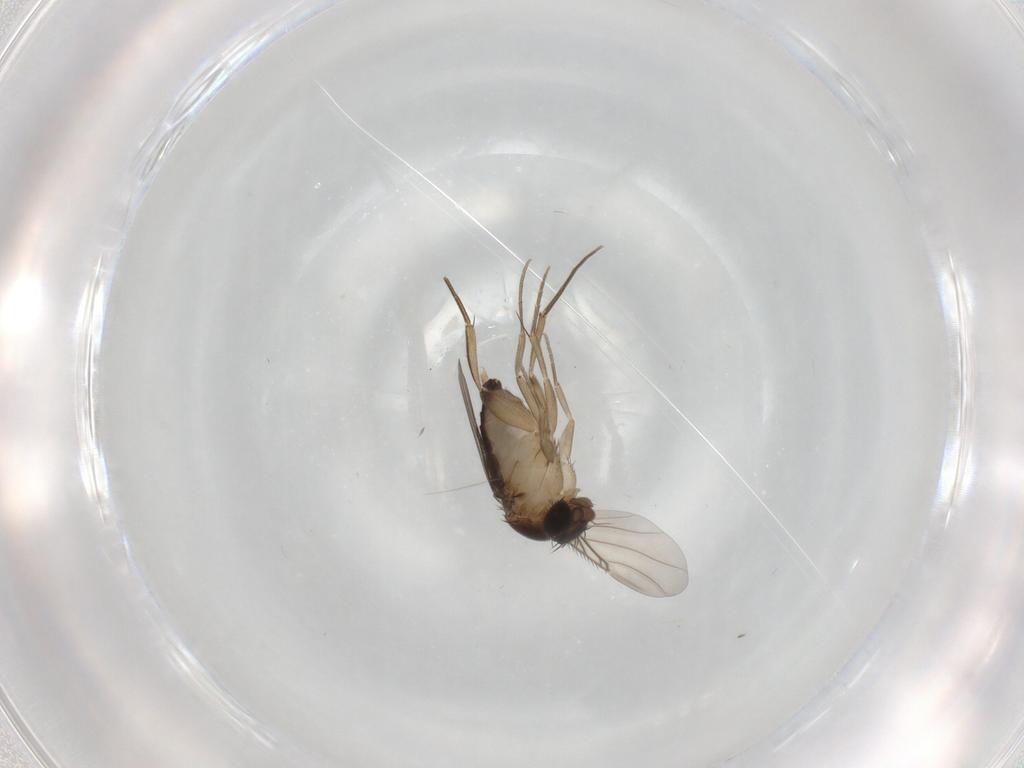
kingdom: Animalia
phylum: Arthropoda
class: Insecta
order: Diptera
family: Phoridae
